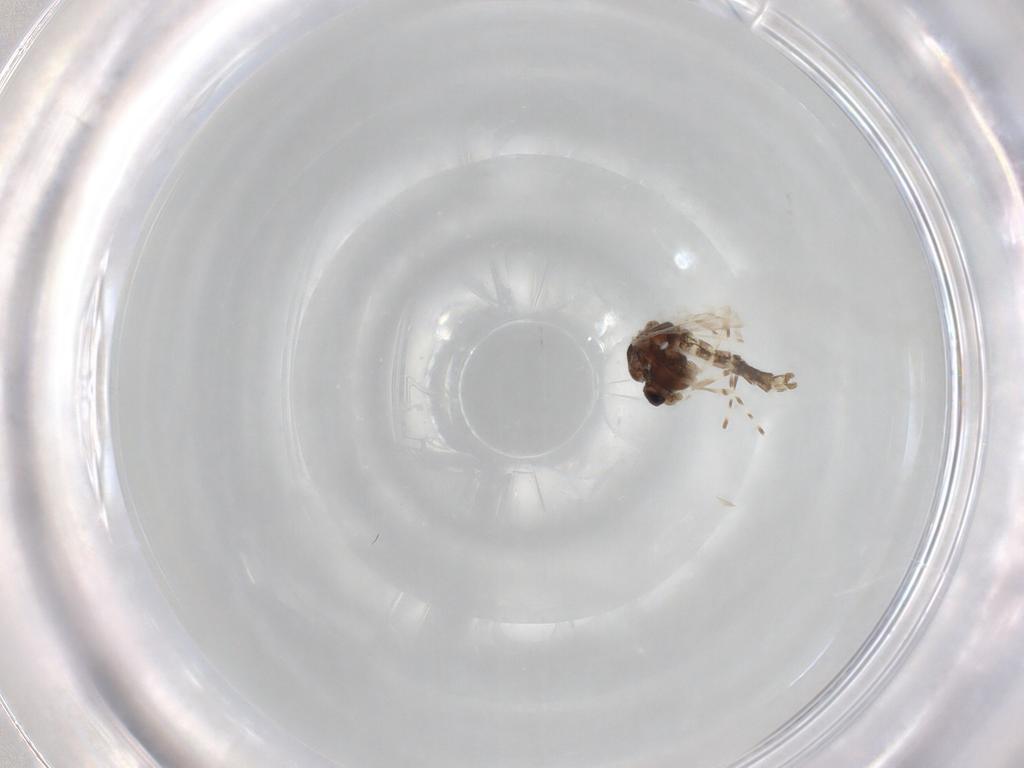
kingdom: Animalia
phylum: Arthropoda
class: Insecta
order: Diptera
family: Chironomidae
